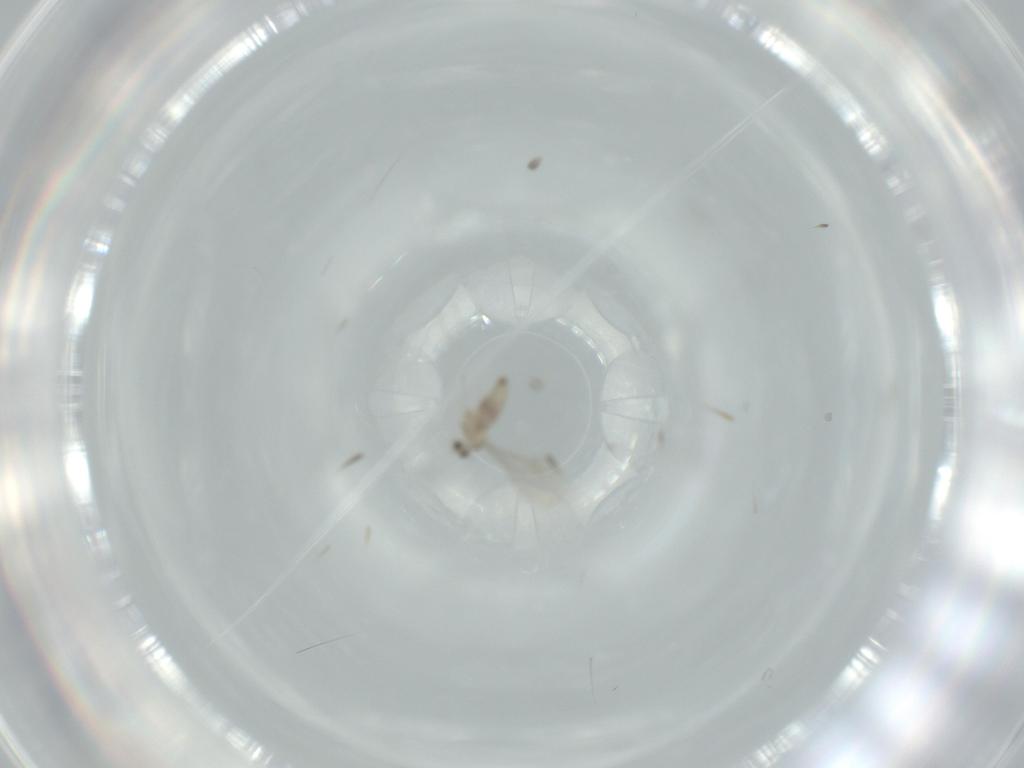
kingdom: Animalia
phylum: Arthropoda
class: Insecta
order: Diptera
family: Cecidomyiidae
